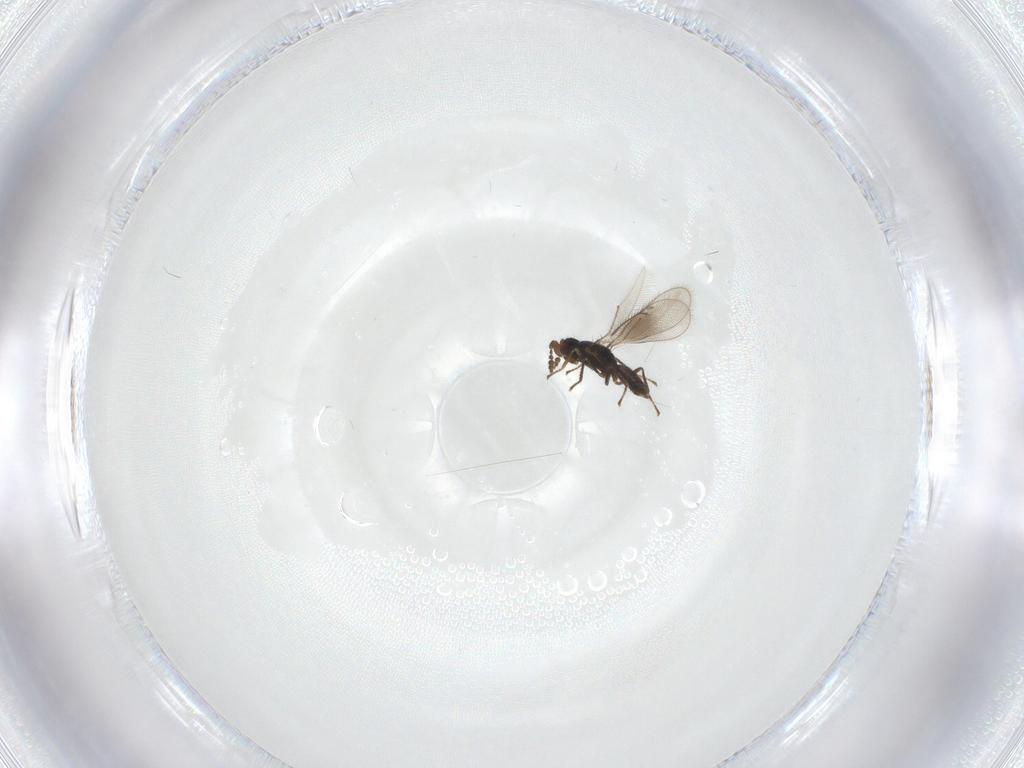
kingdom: Animalia
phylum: Arthropoda
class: Insecta
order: Hymenoptera
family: Eulophidae
